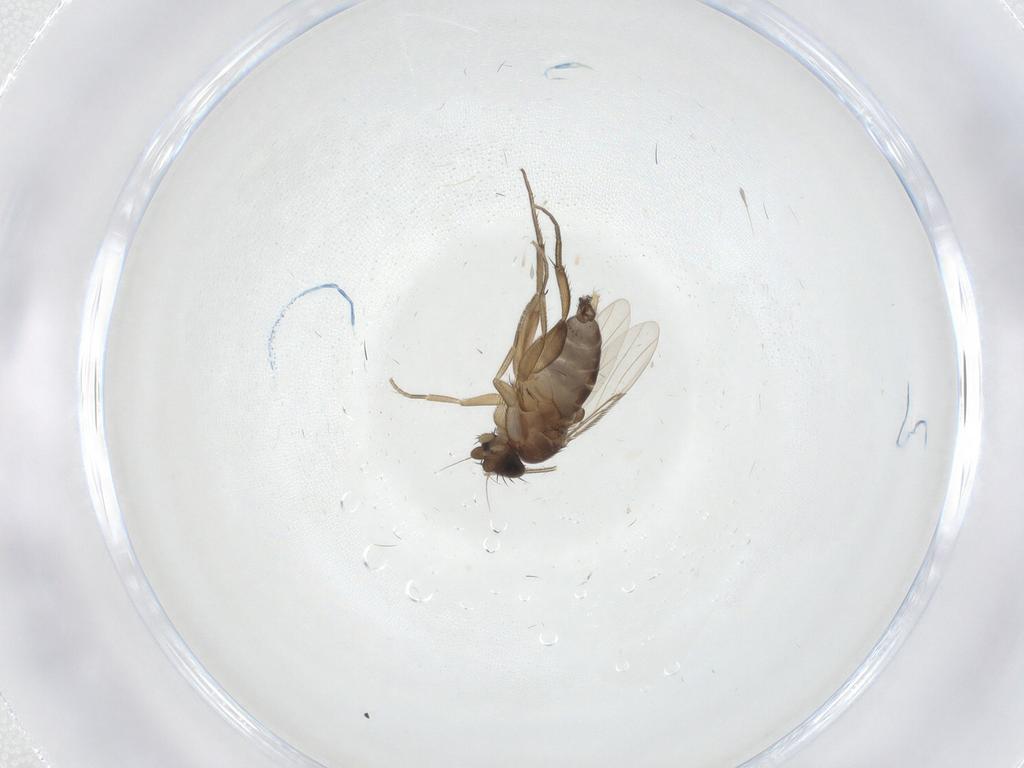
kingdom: Animalia
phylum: Arthropoda
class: Insecta
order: Diptera
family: Phoridae
